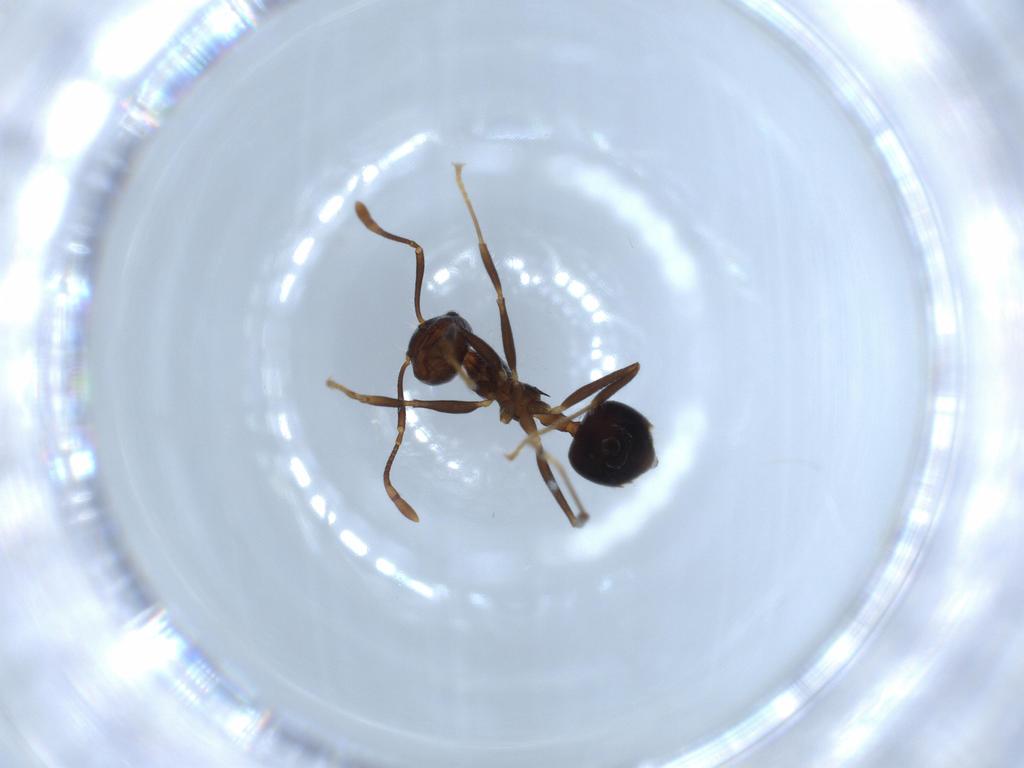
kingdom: Animalia
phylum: Arthropoda
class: Insecta
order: Hymenoptera
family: Formicidae
